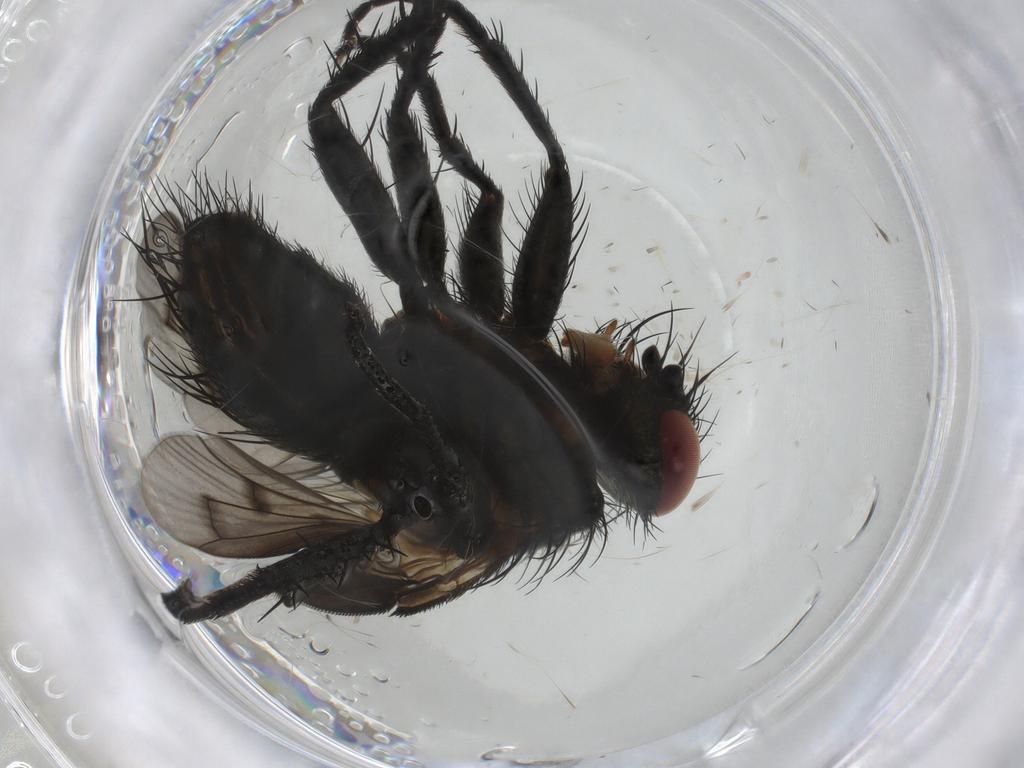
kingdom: Animalia
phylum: Arthropoda
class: Insecta
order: Diptera
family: Tachinidae
